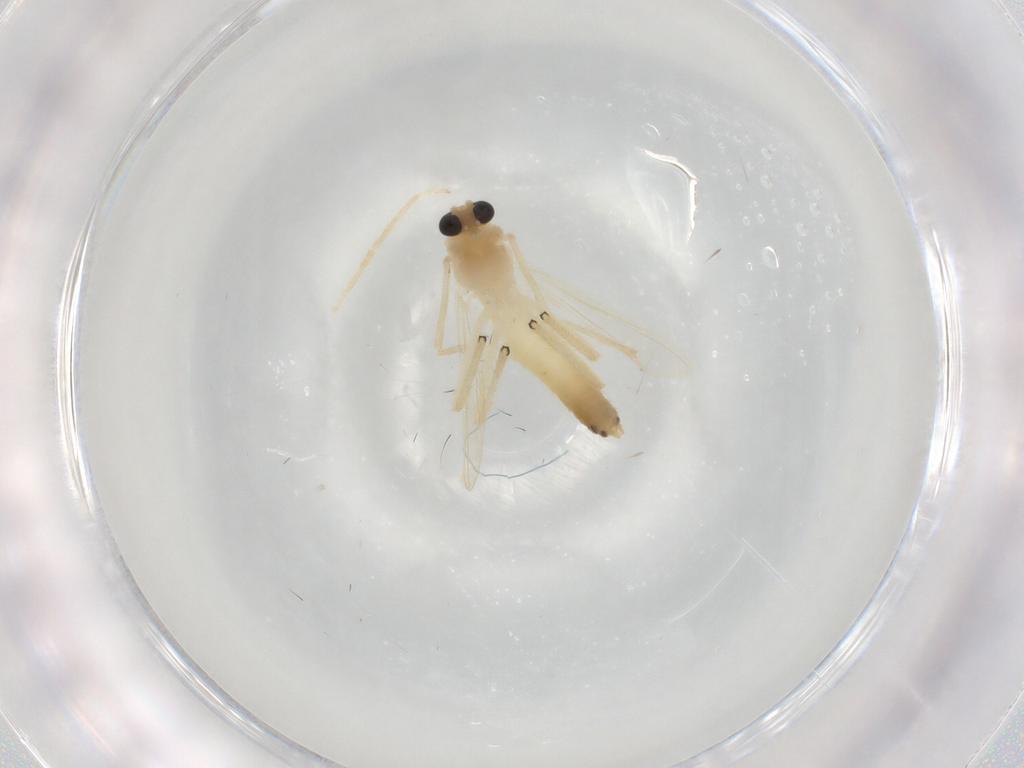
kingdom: Animalia
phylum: Arthropoda
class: Insecta
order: Diptera
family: Chironomidae
